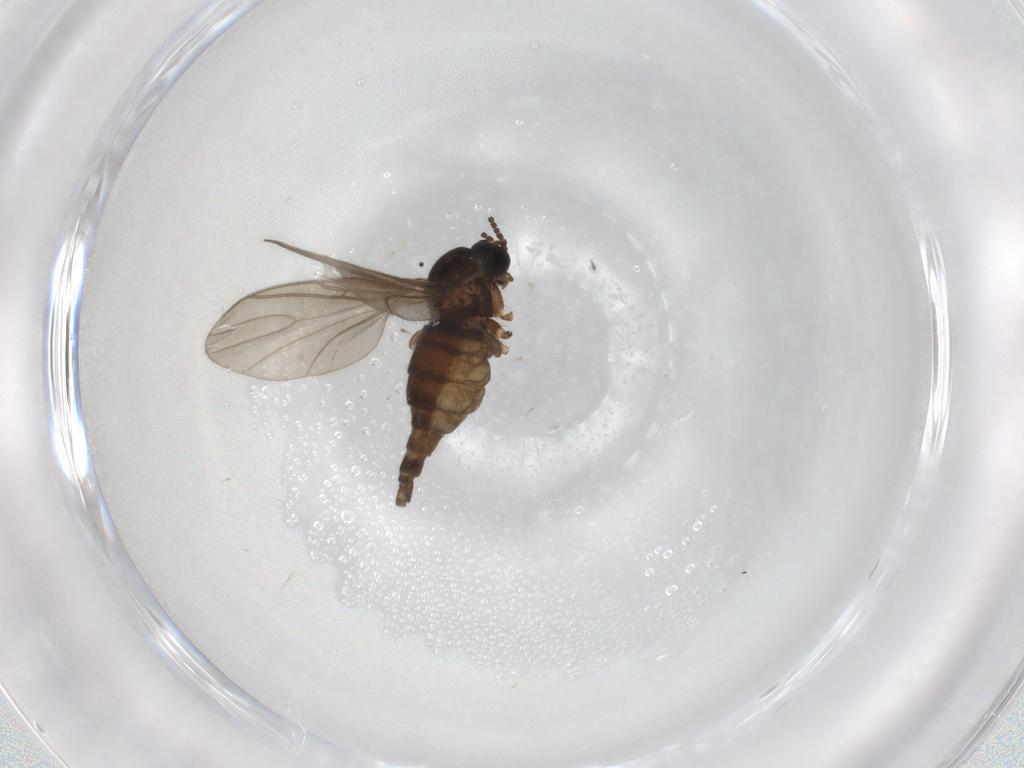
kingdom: Animalia
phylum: Arthropoda
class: Insecta
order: Diptera
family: Sciaridae
